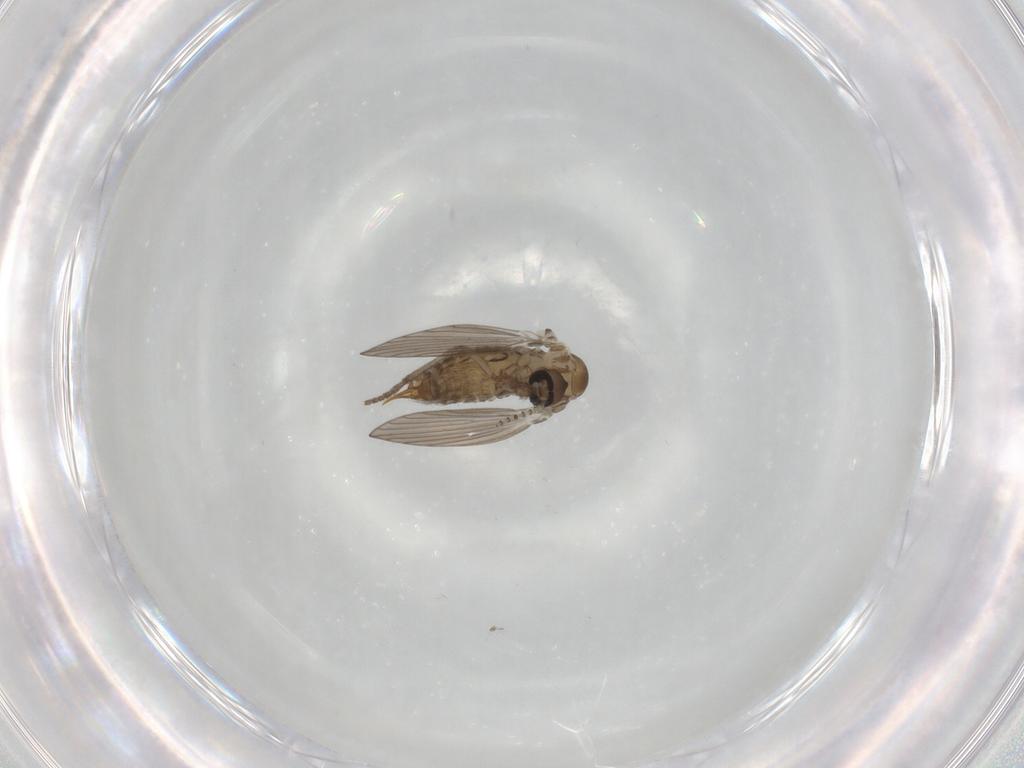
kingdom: Animalia
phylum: Arthropoda
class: Insecta
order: Diptera
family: Psychodidae
